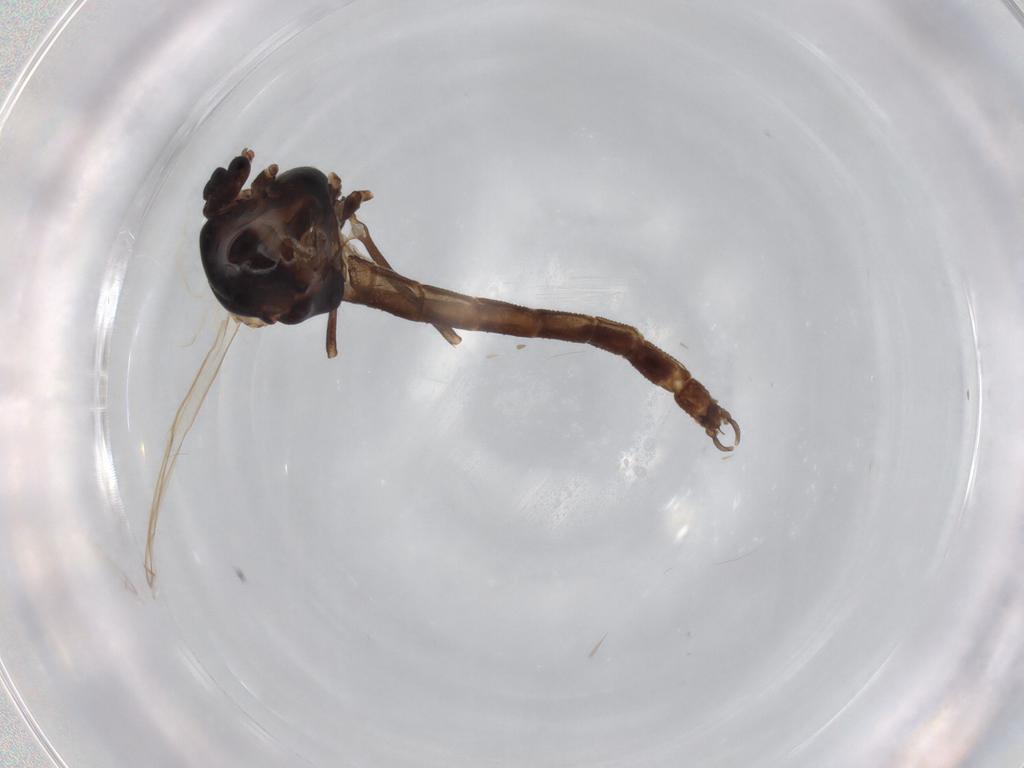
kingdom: Animalia
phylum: Arthropoda
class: Insecta
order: Diptera
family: Chironomidae
